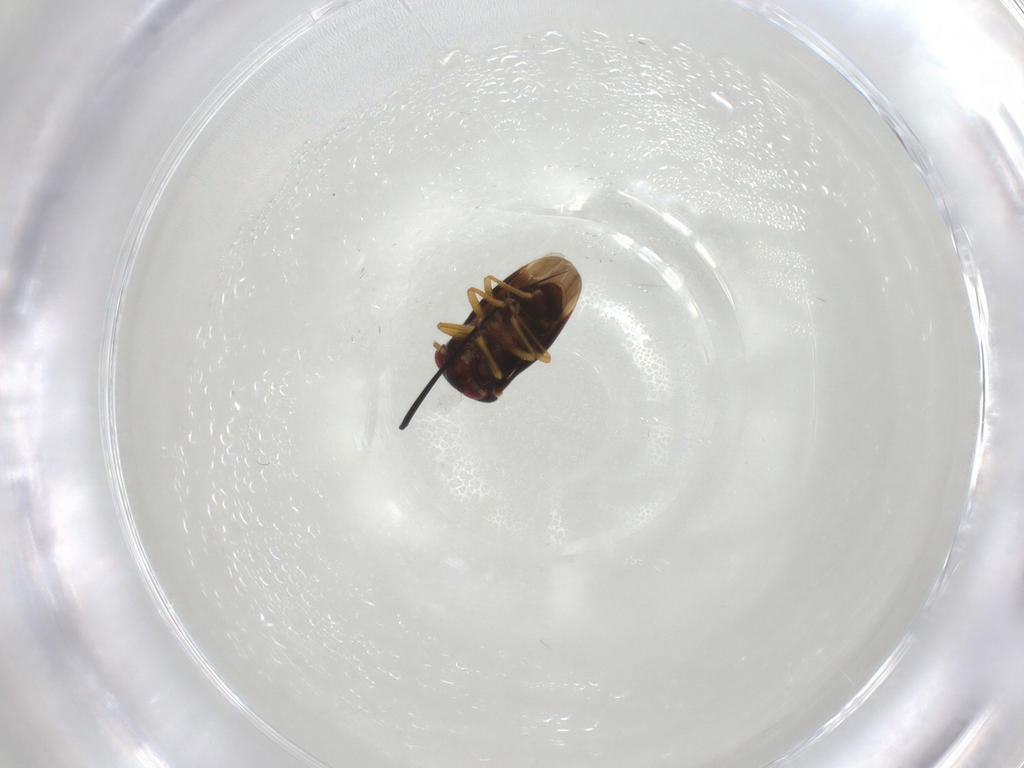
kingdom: Animalia
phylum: Arthropoda
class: Insecta
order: Hemiptera
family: Schizopteridae
